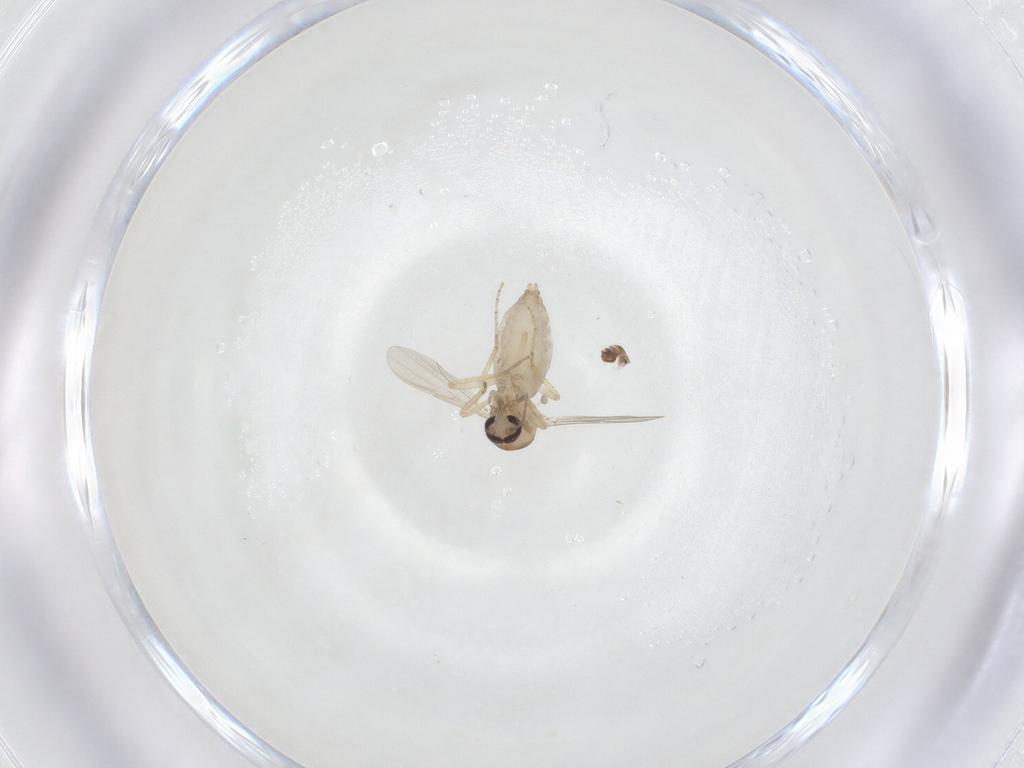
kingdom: Animalia
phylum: Arthropoda
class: Insecta
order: Diptera
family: Ceratopogonidae
